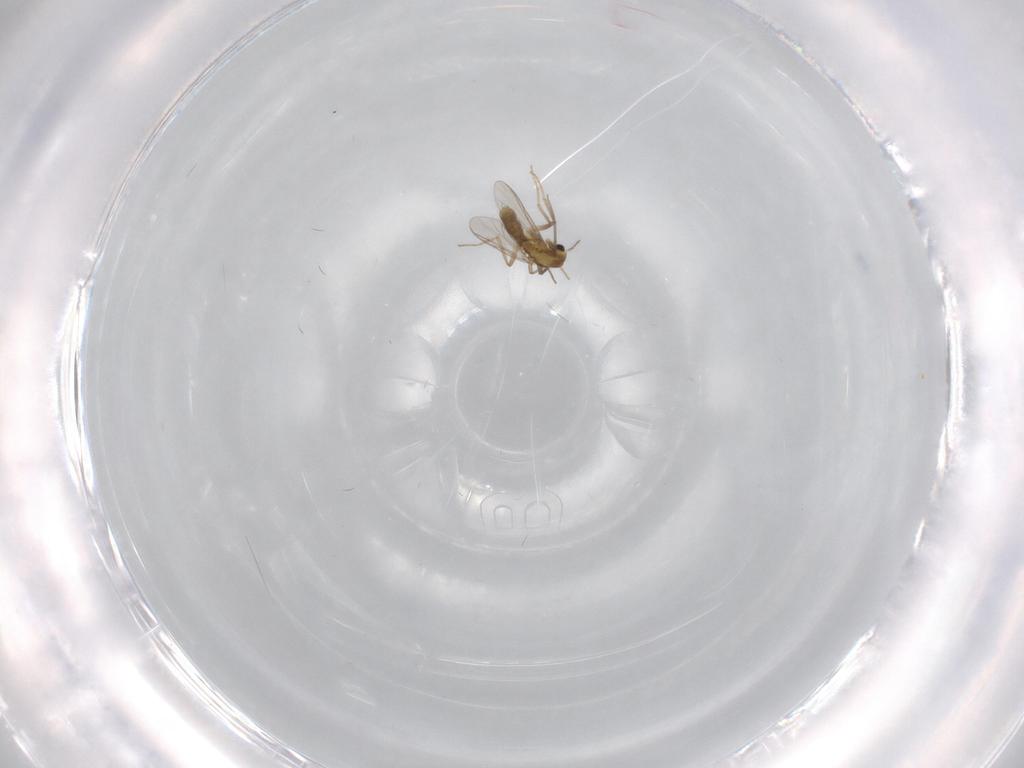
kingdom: Animalia
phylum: Arthropoda
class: Insecta
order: Diptera
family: Chironomidae
